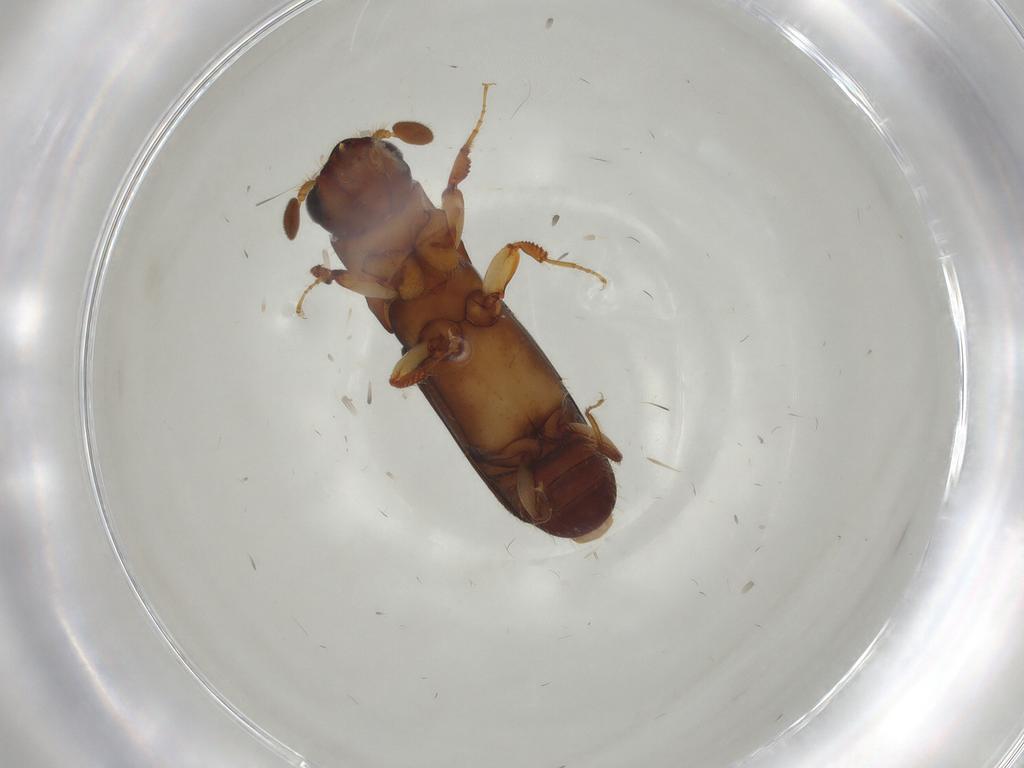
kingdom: Animalia
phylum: Arthropoda
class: Insecta
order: Coleoptera
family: Curculionidae
